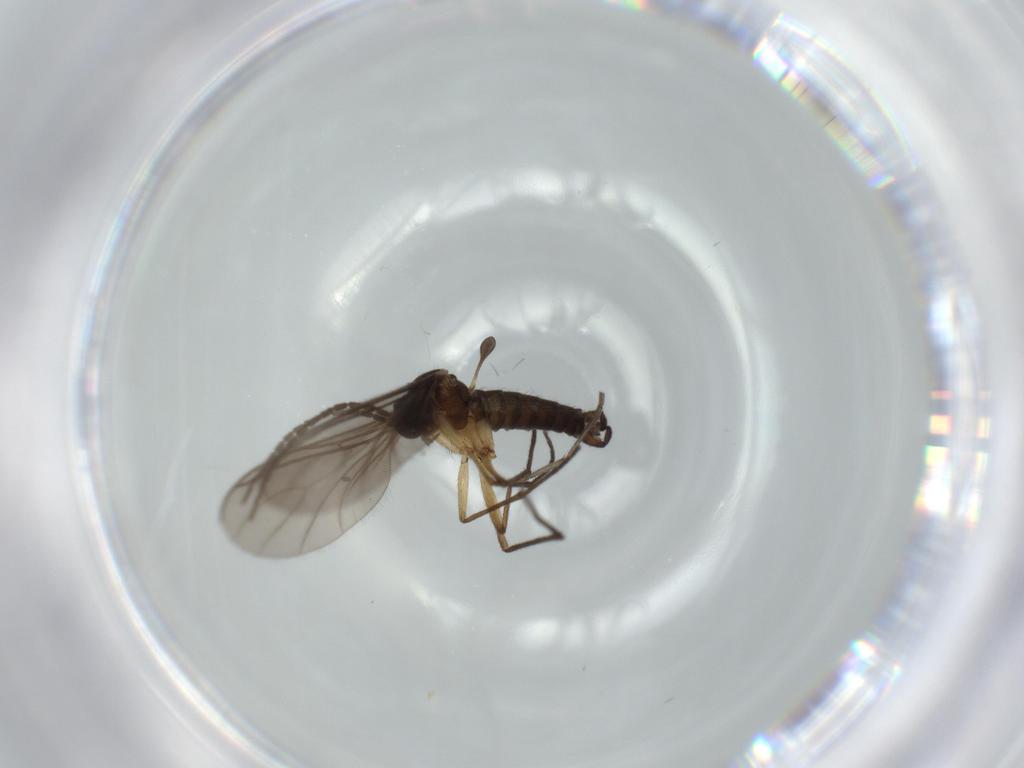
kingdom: Animalia
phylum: Arthropoda
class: Insecta
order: Diptera
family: Sciaridae
